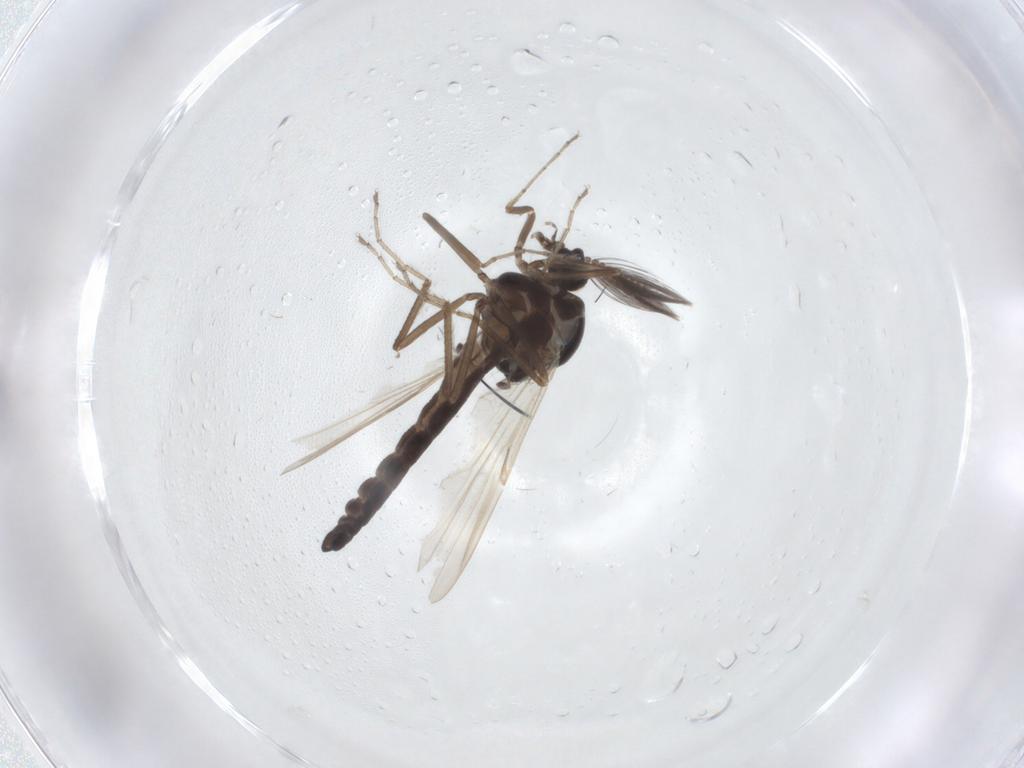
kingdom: Animalia
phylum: Arthropoda
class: Insecta
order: Diptera
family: Ceratopogonidae
